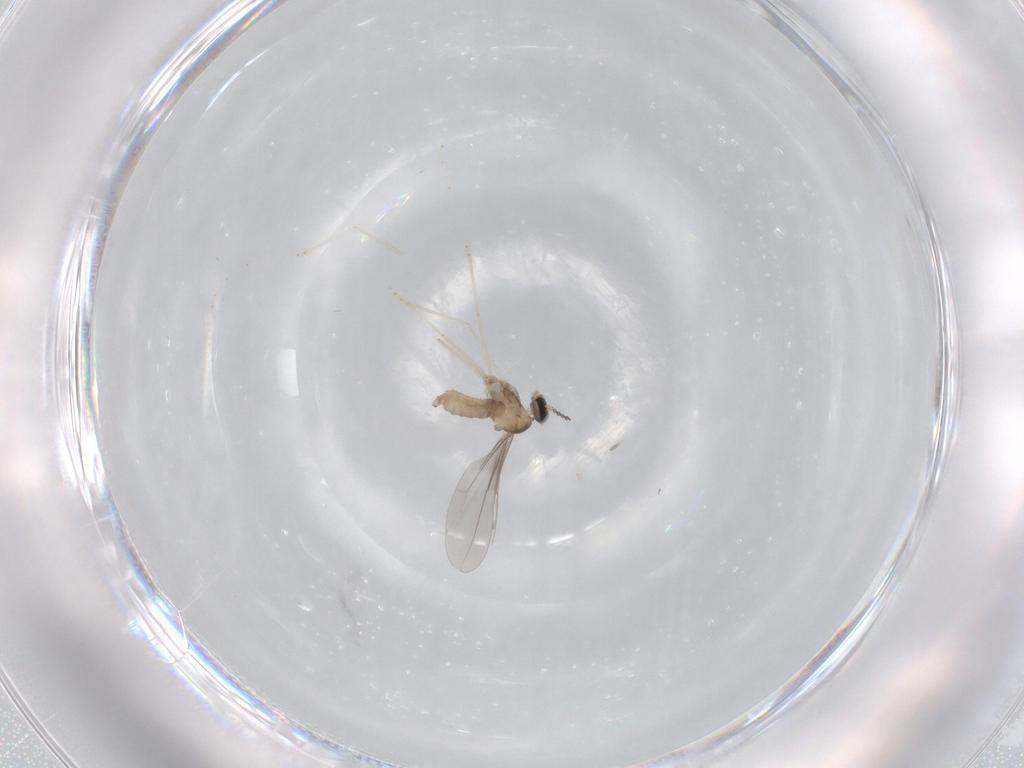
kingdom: Animalia
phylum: Arthropoda
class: Insecta
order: Diptera
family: Cecidomyiidae
